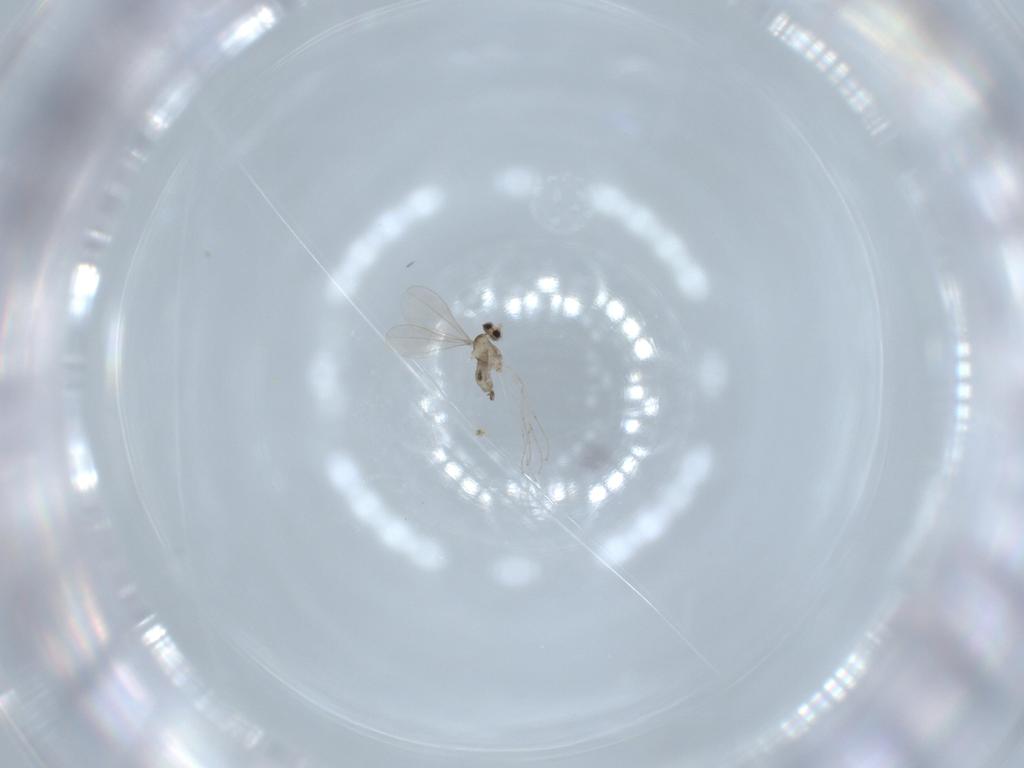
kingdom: Animalia
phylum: Arthropoda
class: Insecta
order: Diptera
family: Cecidomyiidae
